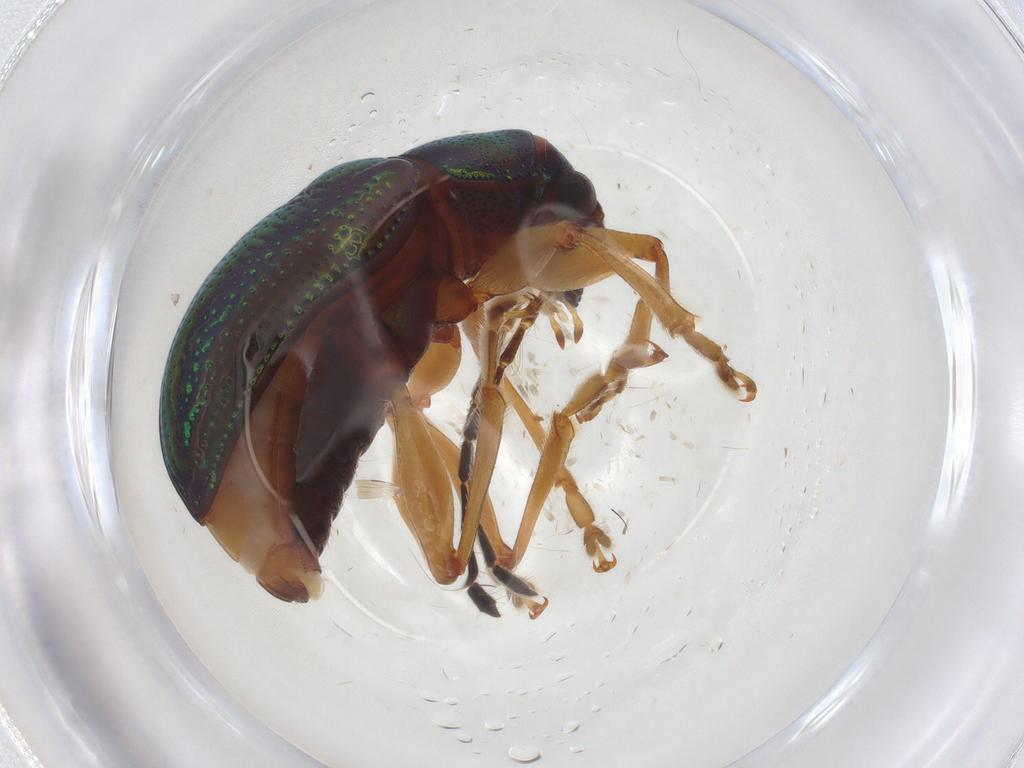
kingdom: Animalia
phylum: Arthropoda
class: Insecta
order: Coleoptera
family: Chrysomelidae
